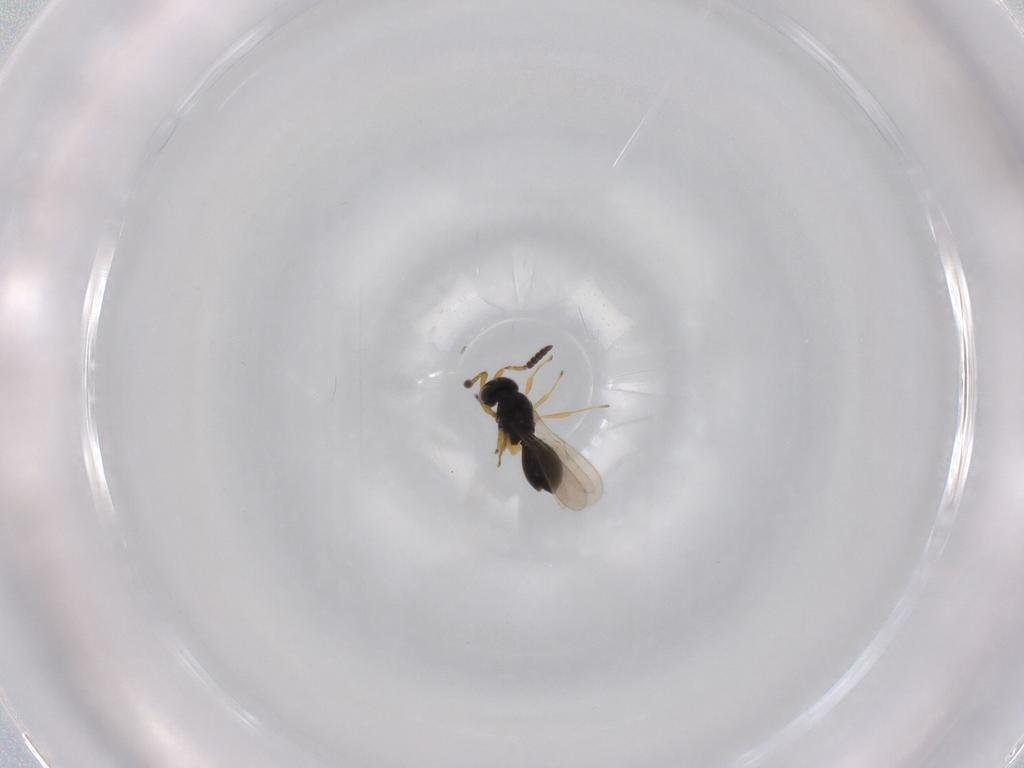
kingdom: Animalia
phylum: Arthropoda
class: Insecta
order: Hymenoptera
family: Scelionidae
